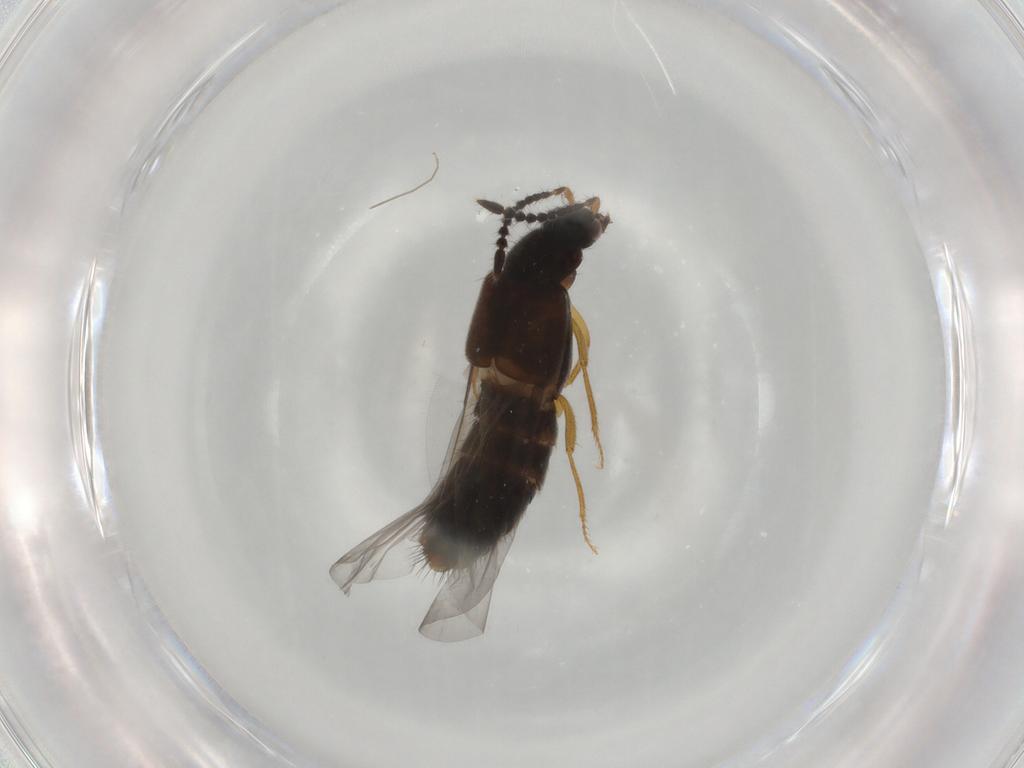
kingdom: Animalia
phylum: Arthropoda
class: Insecta
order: Coleoptera
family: Staphylinidae
